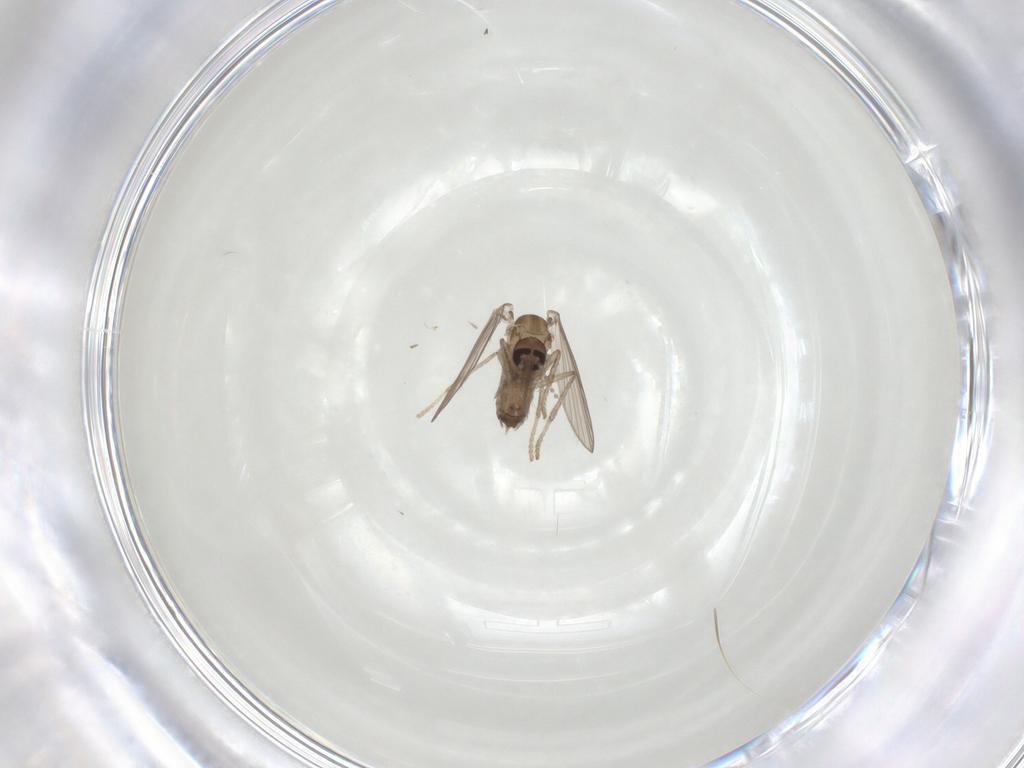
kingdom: Animalia
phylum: Arthropoda
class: Insecta
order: Diptera
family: Psychodidae
